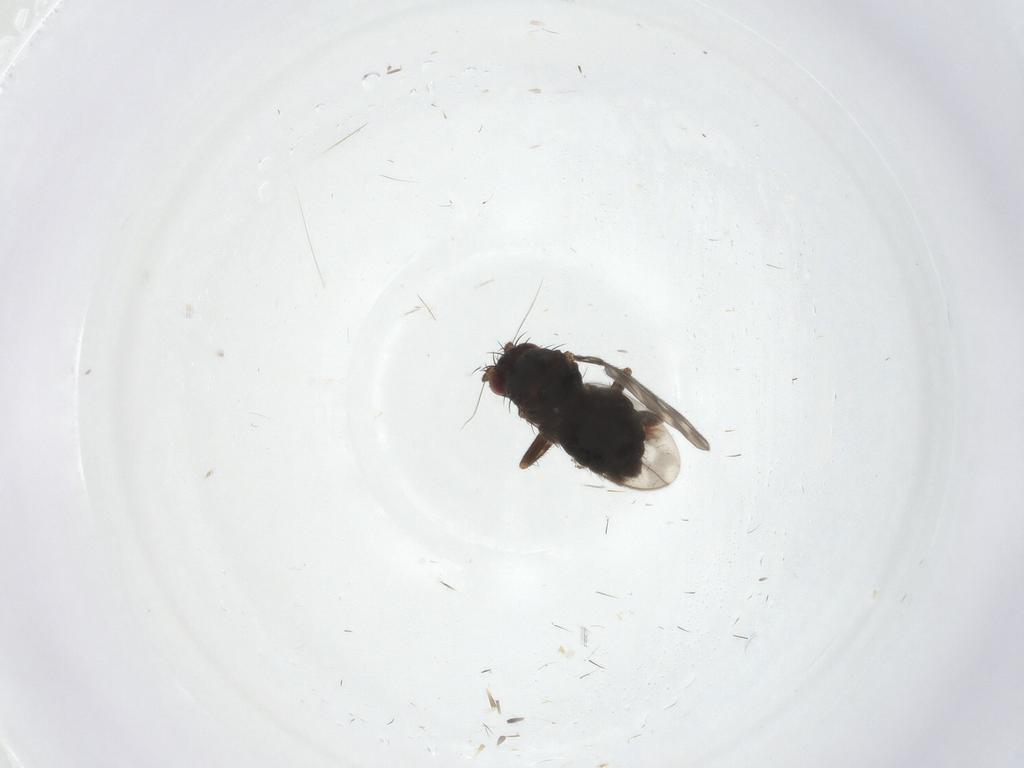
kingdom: Animalia
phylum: Arthropoda
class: Insecta
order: Diptera
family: Sphaeroceridae
